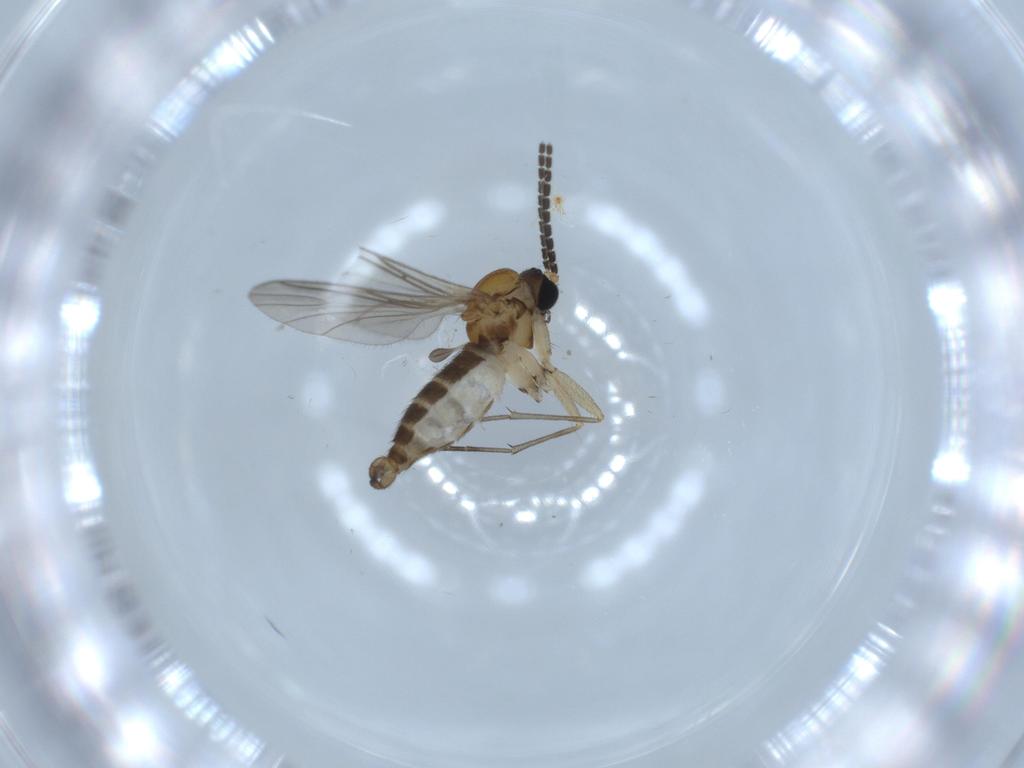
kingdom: Animalia
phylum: Arthropoda
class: Insecta
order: Diptera
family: Sciaridae
